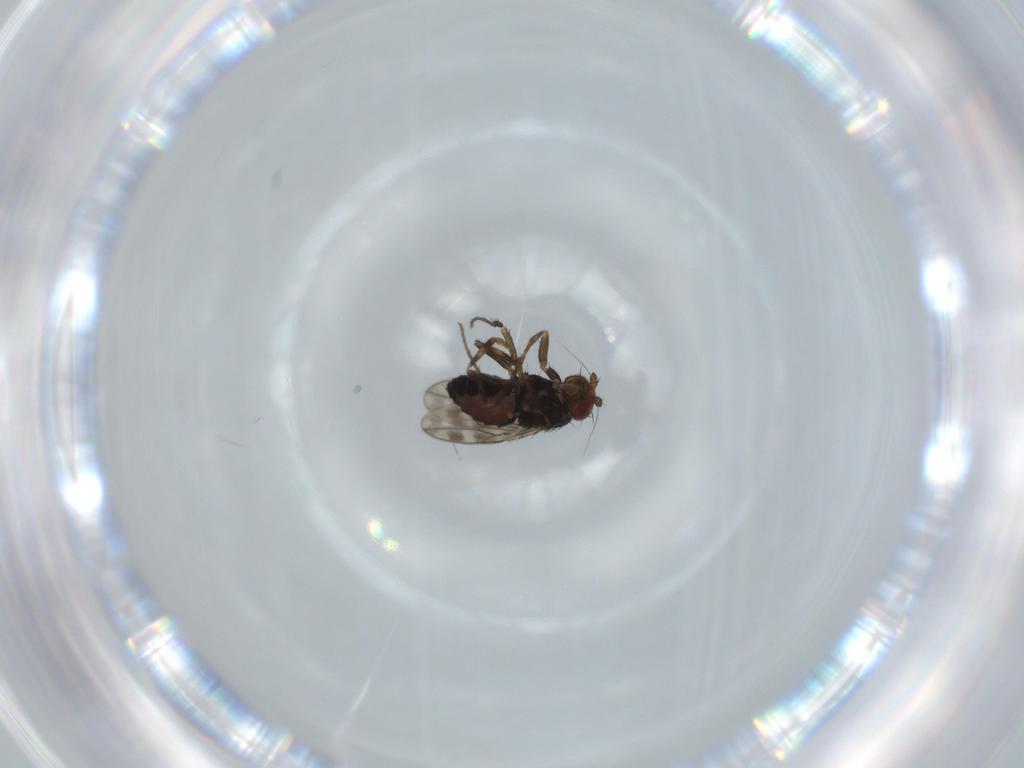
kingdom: Animalia
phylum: Arthropoda
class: Insecta
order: Diptera
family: Sphaeroceridae
